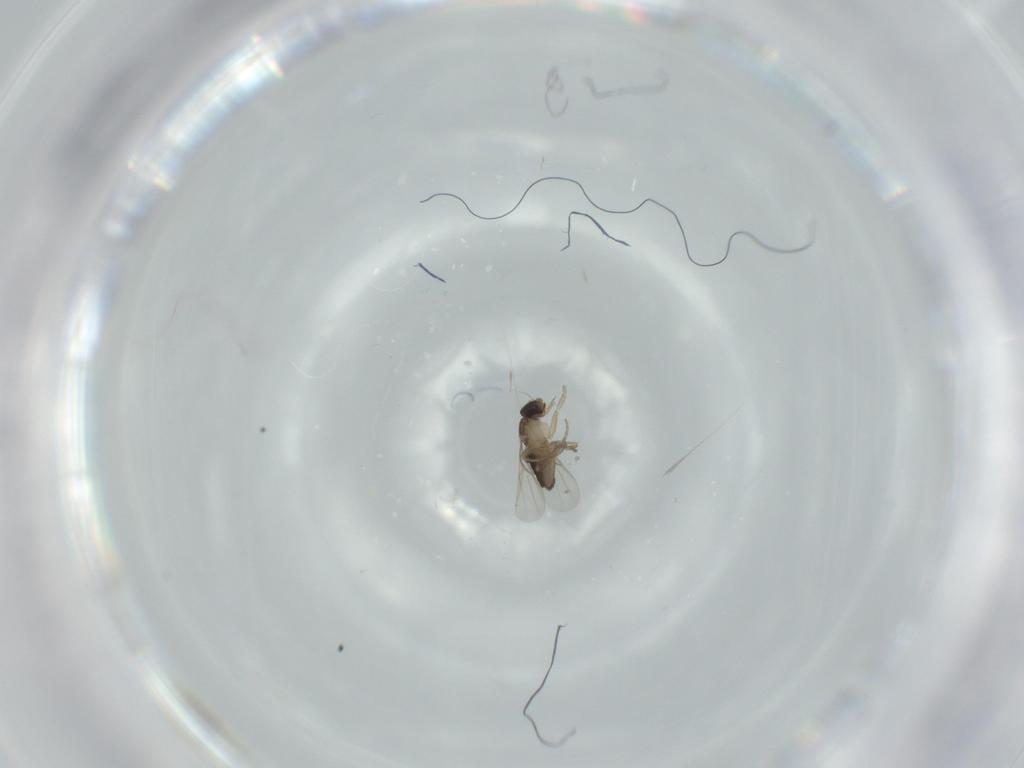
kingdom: Animalia
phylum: Arthropoda
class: Insecta
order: Diptera
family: Phoridae
